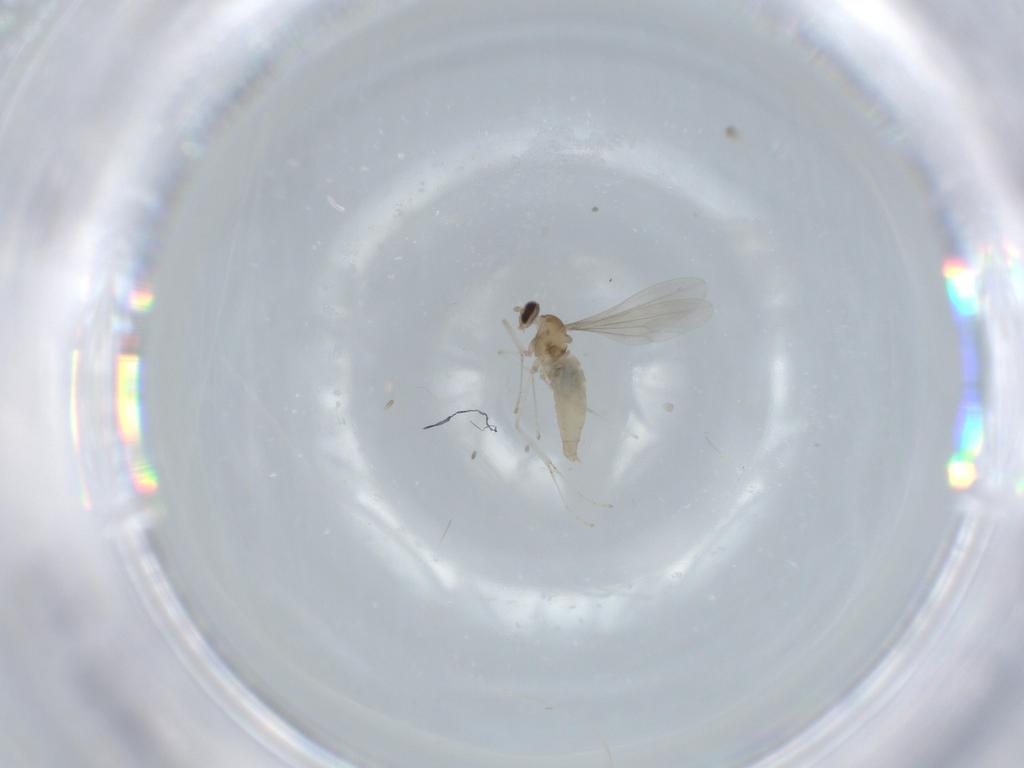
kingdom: Animalia
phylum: Arthropoda
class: Insecta
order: Diptera
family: Cecidomyiidae
